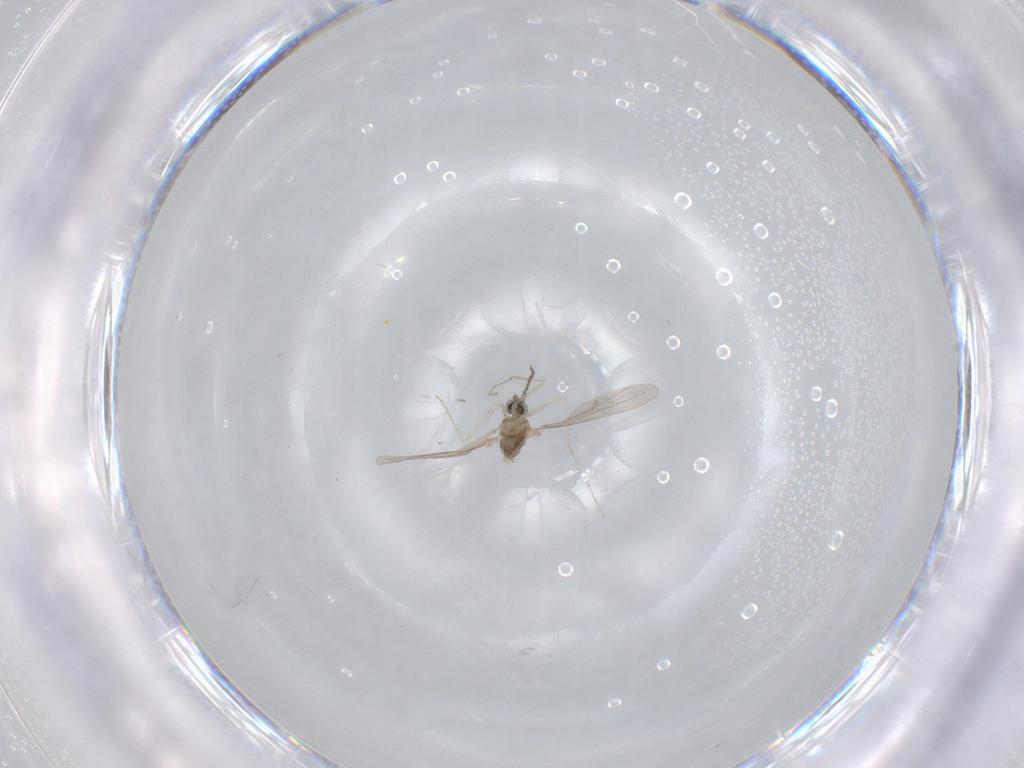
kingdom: Animalia
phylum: Arthropoda
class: Insecta
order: Diptera
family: Cecidomyiidae
